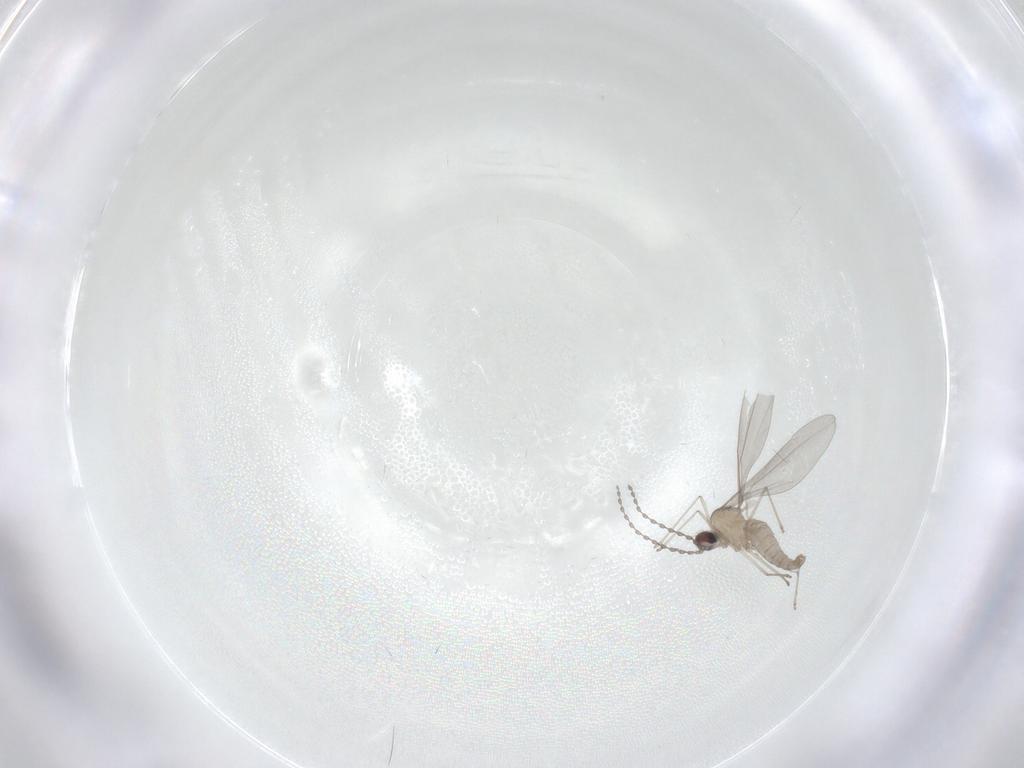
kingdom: Animalia
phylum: Arthropoda
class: Insecta
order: Diptera
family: Cecidomyiidae
